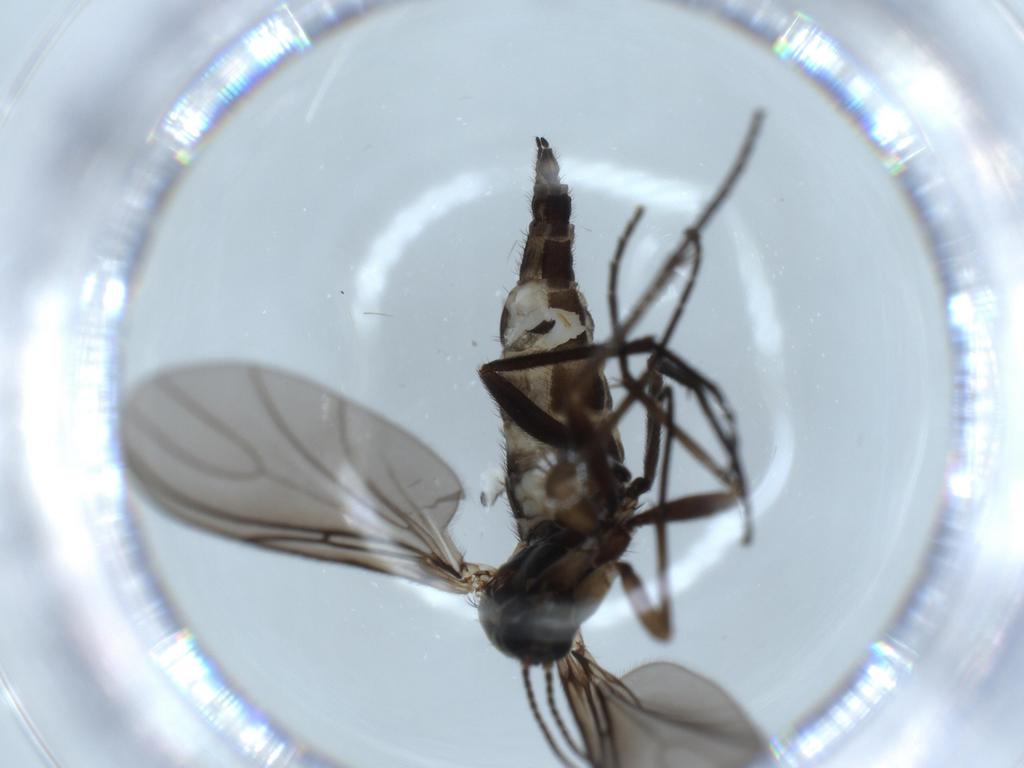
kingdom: Animalia
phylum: Arthropoda
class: Insecta
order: Diptera
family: Sciaridae
